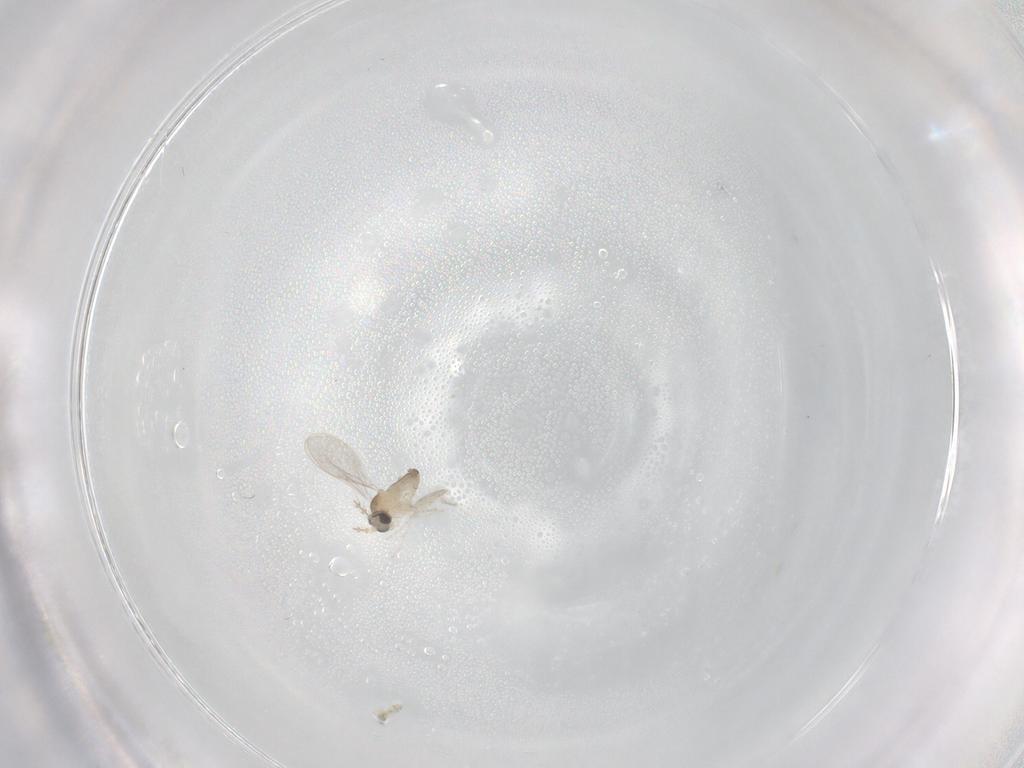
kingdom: Animalia
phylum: Arthropoda
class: Insecta
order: Diptera
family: Cecidomyiidae
